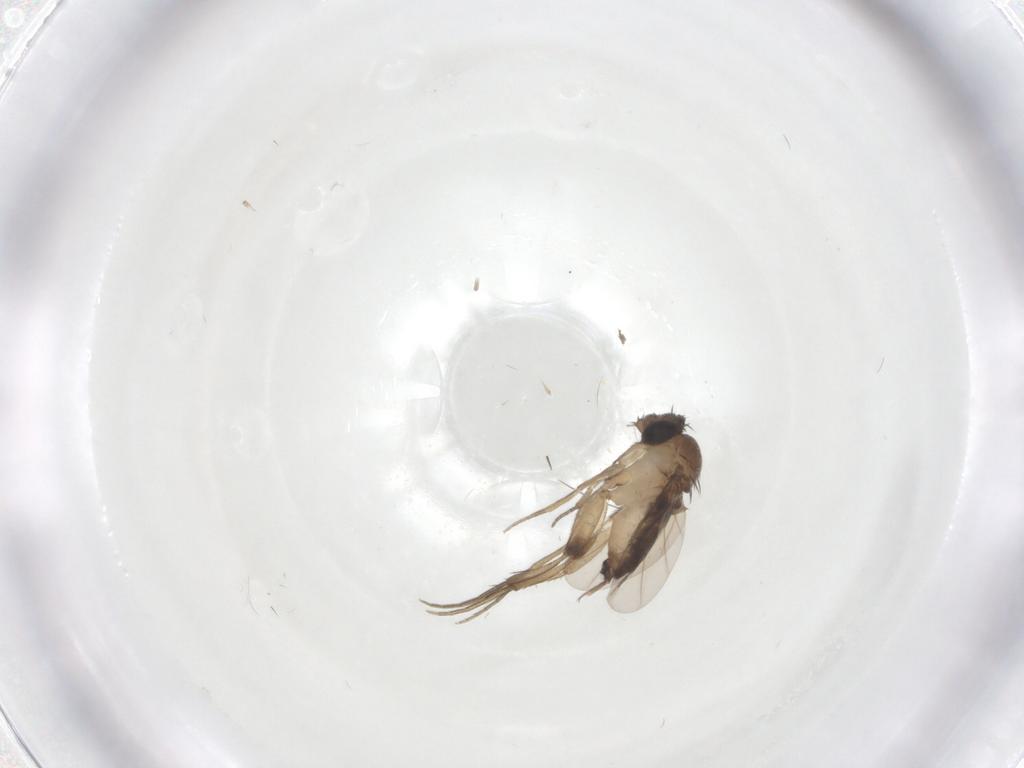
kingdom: Animalia
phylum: Arthropoda
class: Insecta
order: Diptera
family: Phoridae
